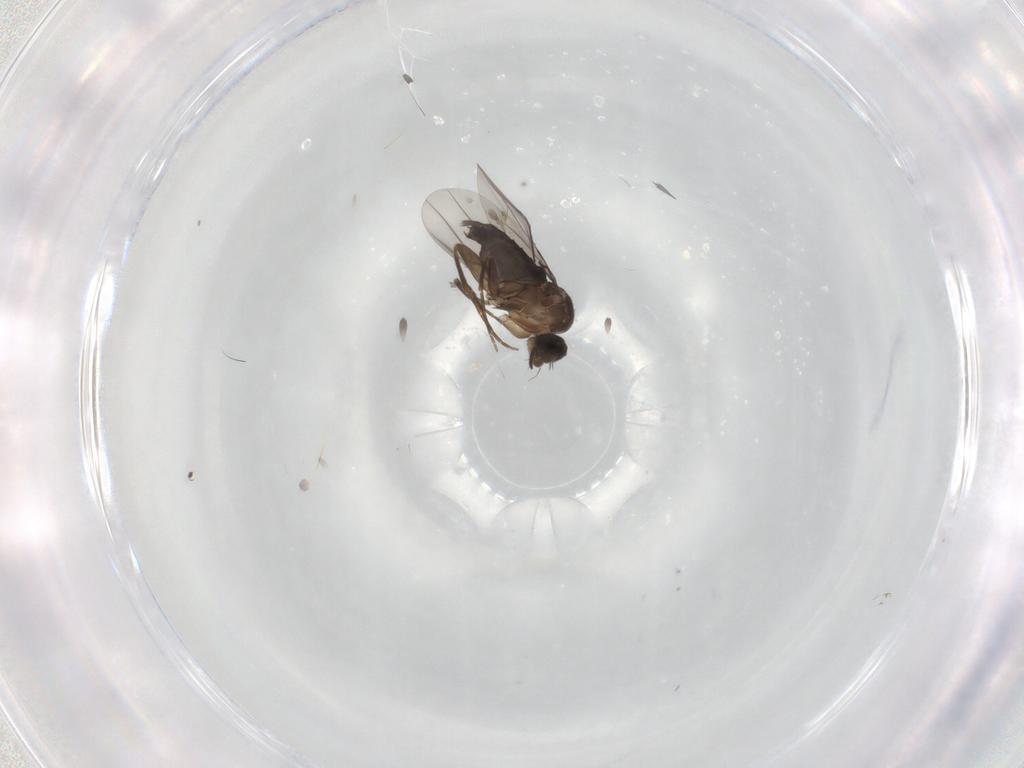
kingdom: Animalia
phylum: Arthropoda
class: Insecta
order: Diptera
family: Phoridae
